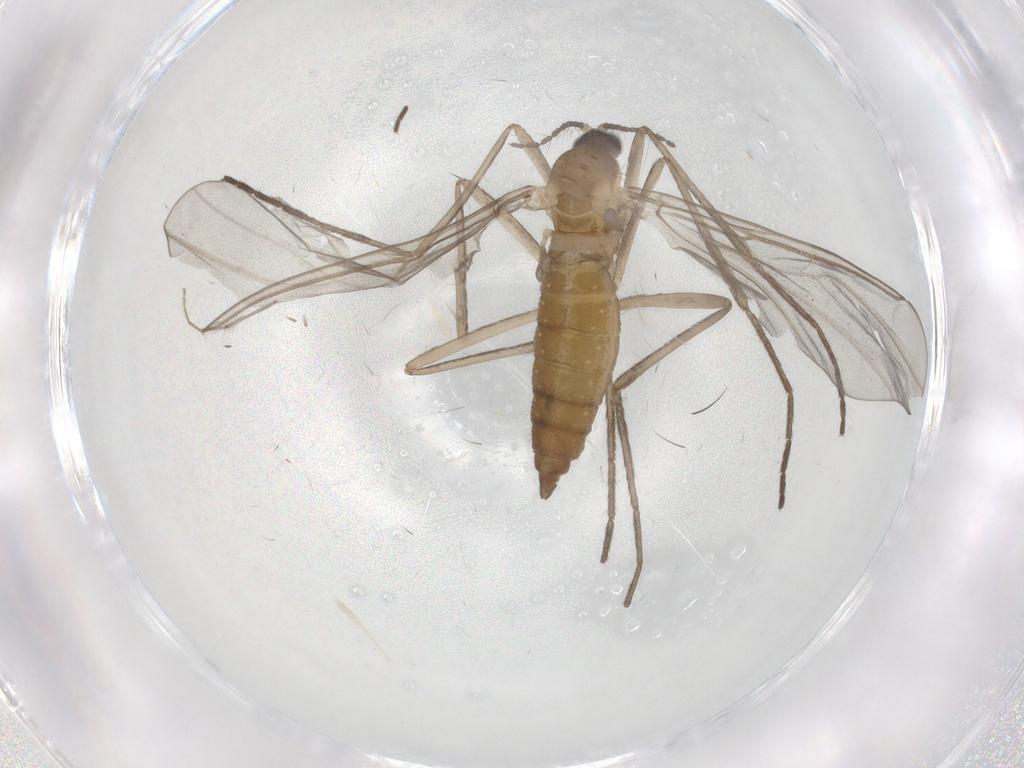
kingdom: Animalia
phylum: Arthropoda
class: Insecta
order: Diptera
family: Cecidomyiidae
